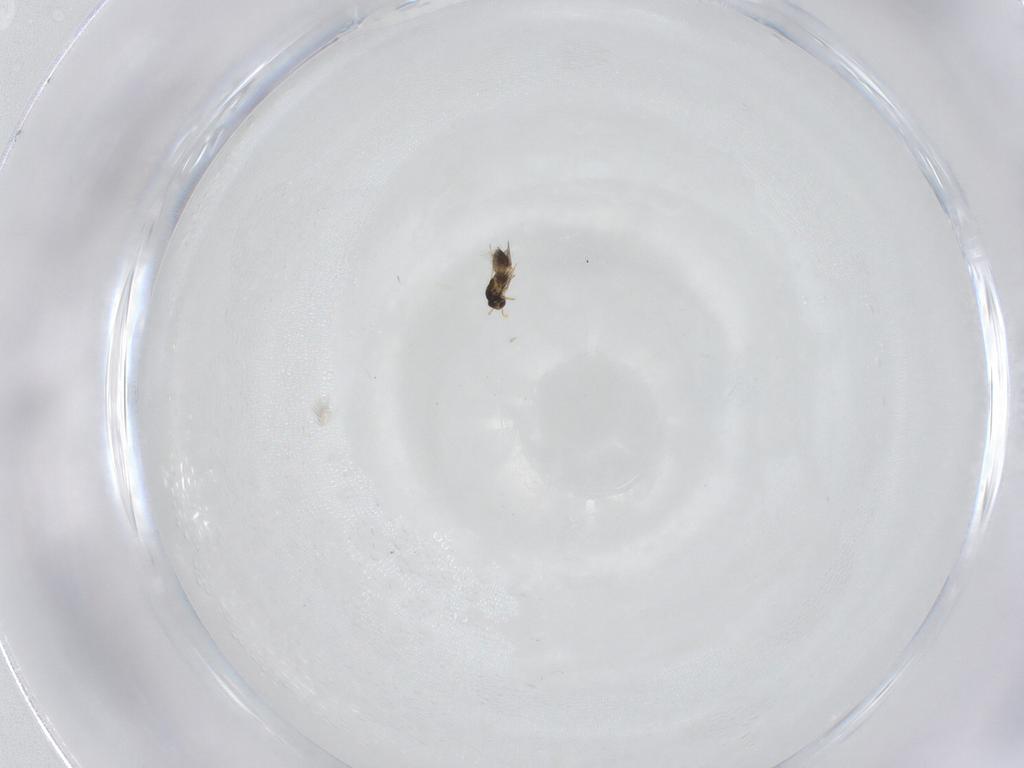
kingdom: Animalia
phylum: Arthropoda
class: Insecta
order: Hymenoptera
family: Mymaridae
